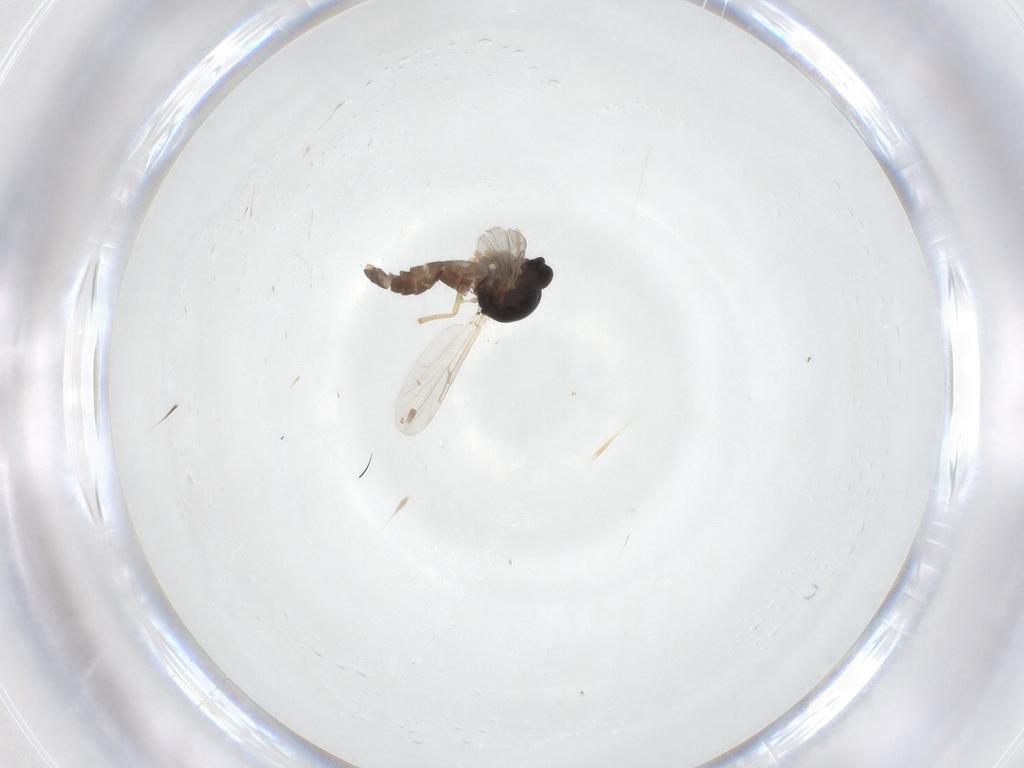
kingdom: Animalia
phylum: Arthropoda
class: Insecta
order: Diptera
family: Ceratopogonidae
